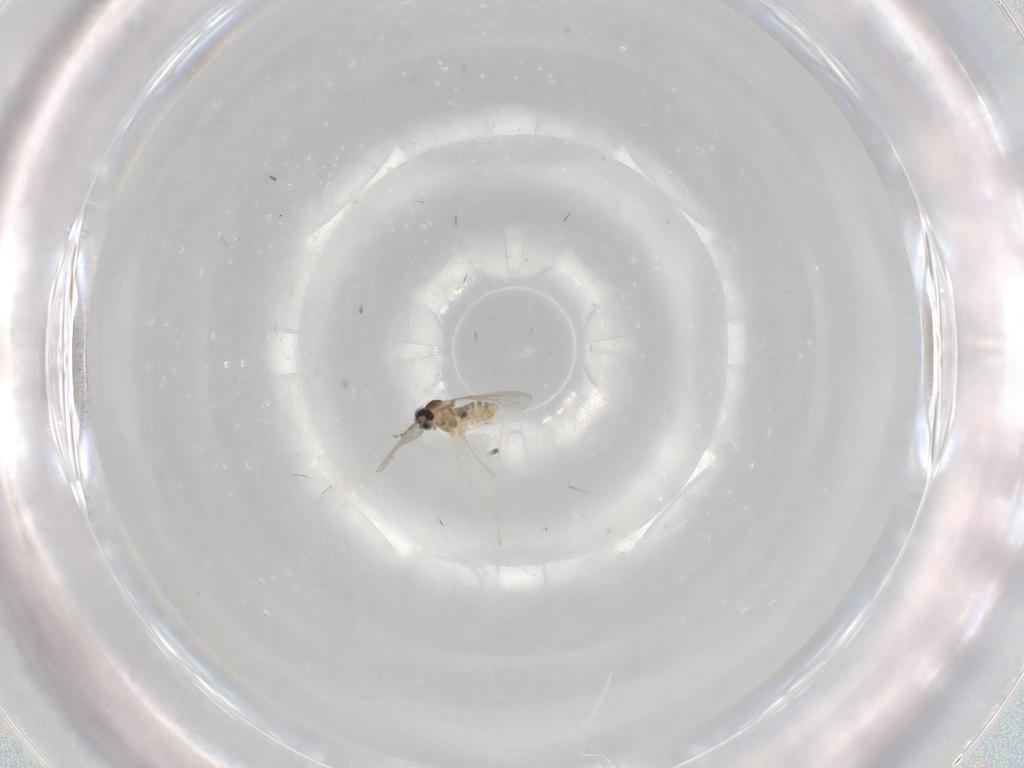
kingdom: Animalia
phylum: Arthropoda
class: Insecta
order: Diptera
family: Cecidomyiidae
